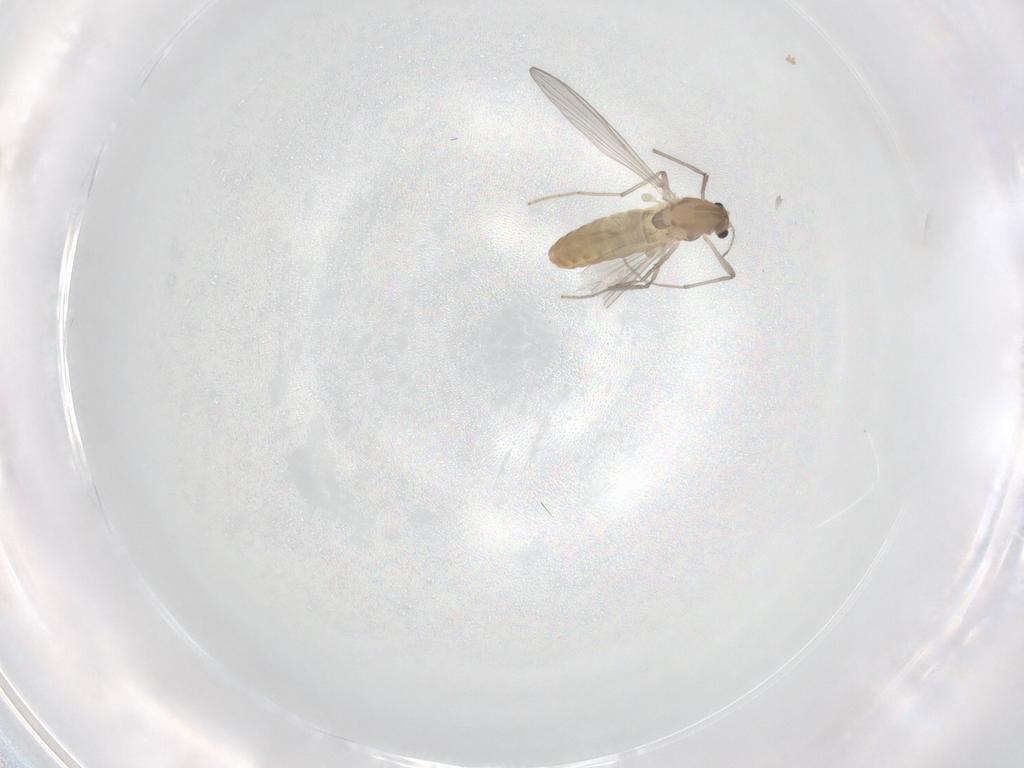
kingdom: Animalia
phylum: Arthropoda
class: Insecta
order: Diptera
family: Chironomidae
